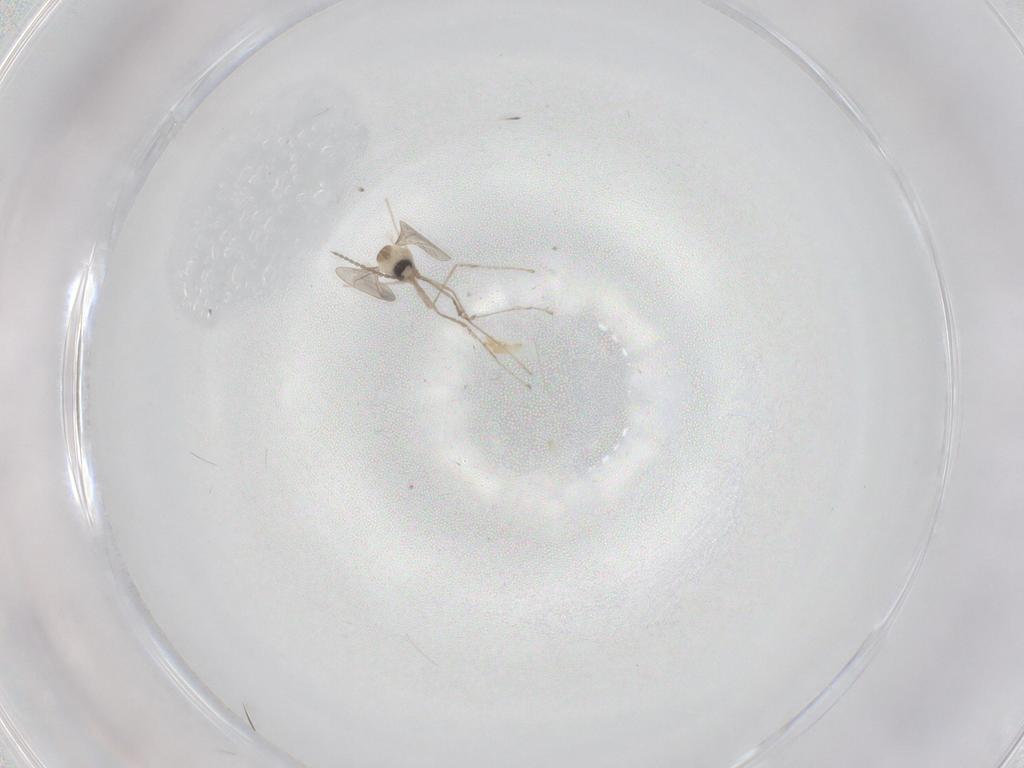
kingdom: Animalia
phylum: Arthropoda
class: Insecta
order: Diptera
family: Cecidomyiidae
